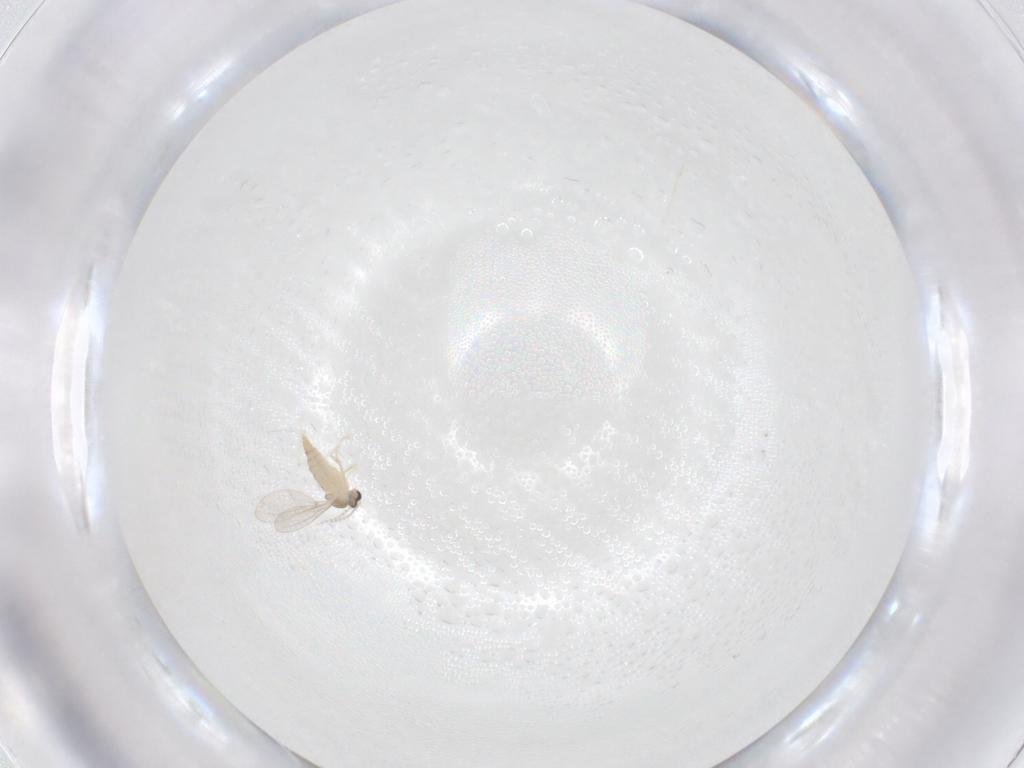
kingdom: Animalia
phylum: Arthropoda
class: Insecta
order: Diptera
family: Cecidomyiidae
